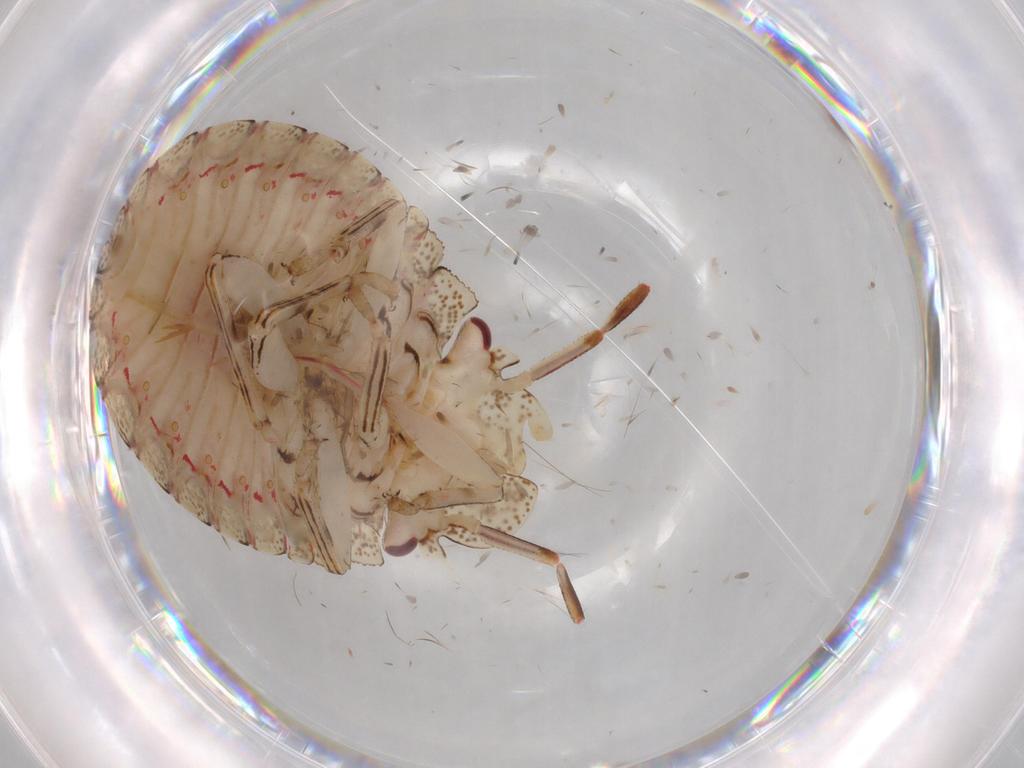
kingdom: Animalia
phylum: Arthropoda
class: Insecta
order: Hemiptera
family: Pentatomidae
